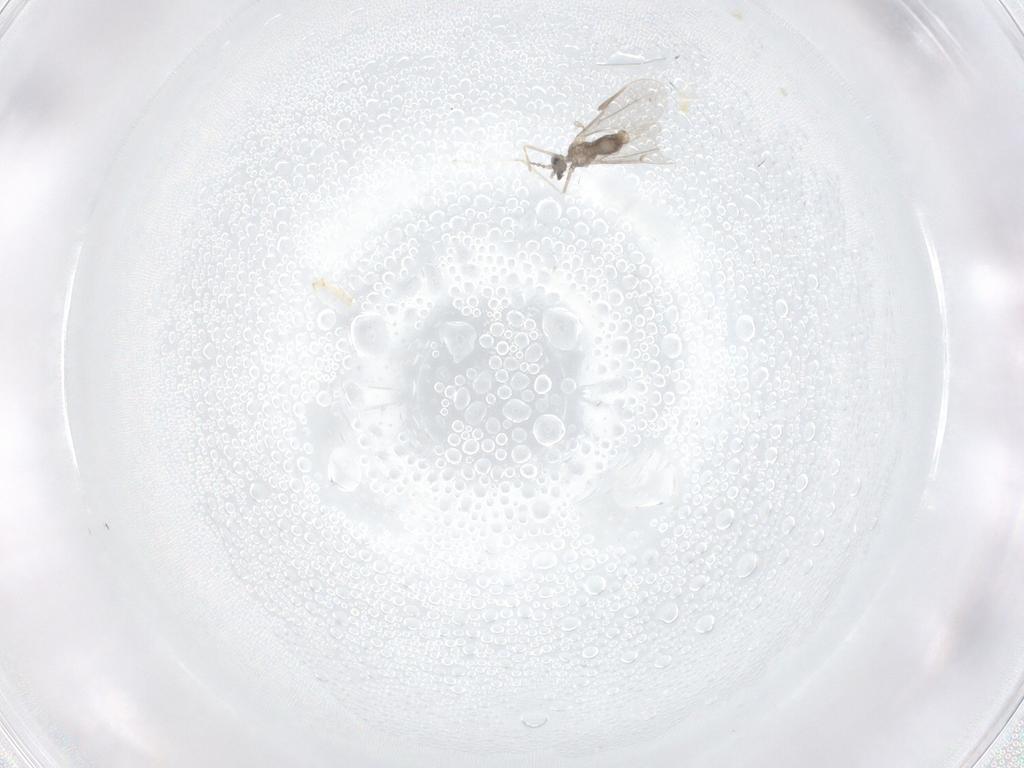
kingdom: Animalia
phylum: Arthropoda
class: Insecta
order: Diptera
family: Cecidomyiidae
